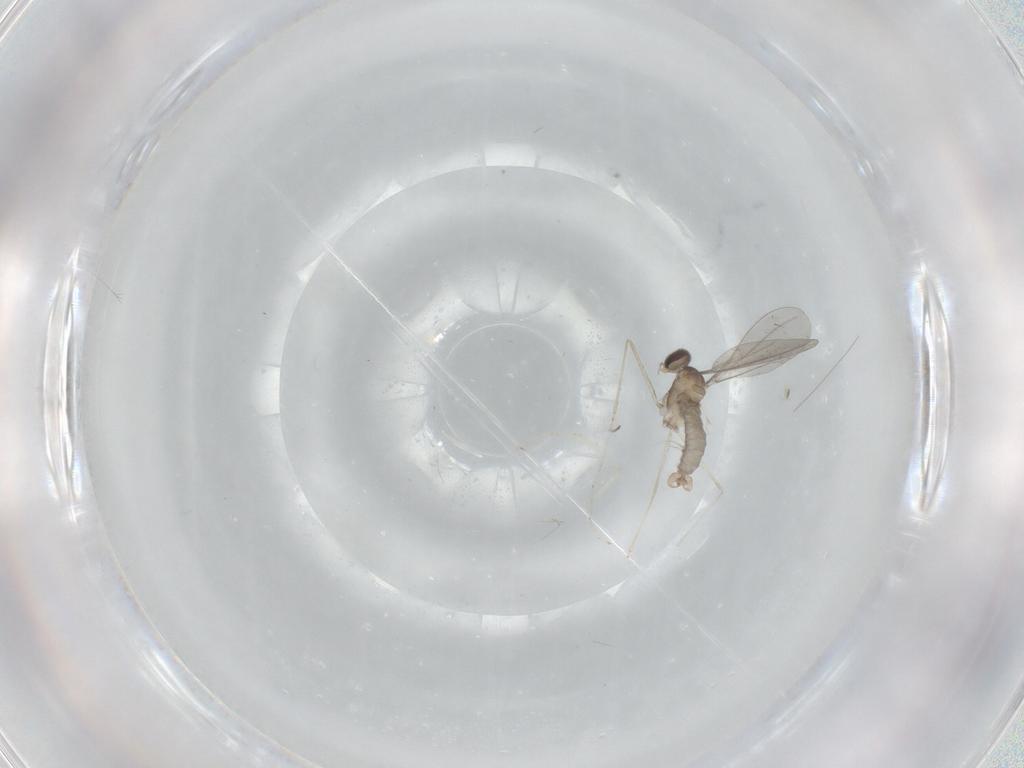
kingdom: Animalia
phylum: Arthropoda
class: Insecta
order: Diptera
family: Cecidomyiidae
